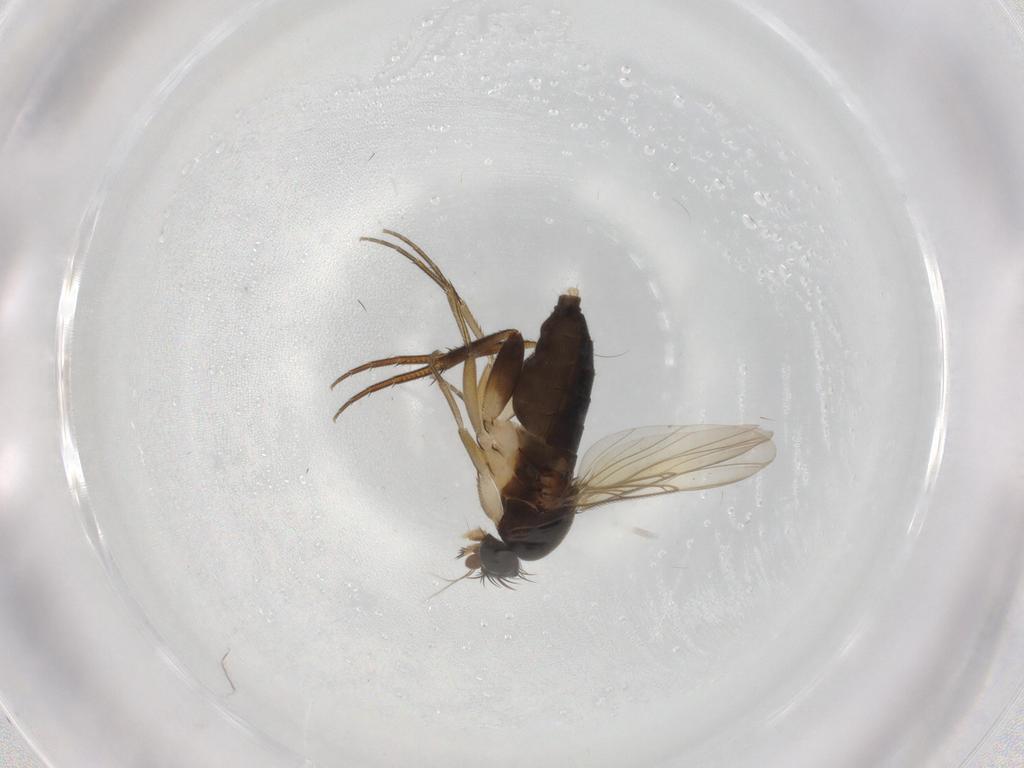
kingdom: Animalia
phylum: Arthropoda
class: Insecta
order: Diptera
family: Phoridae
